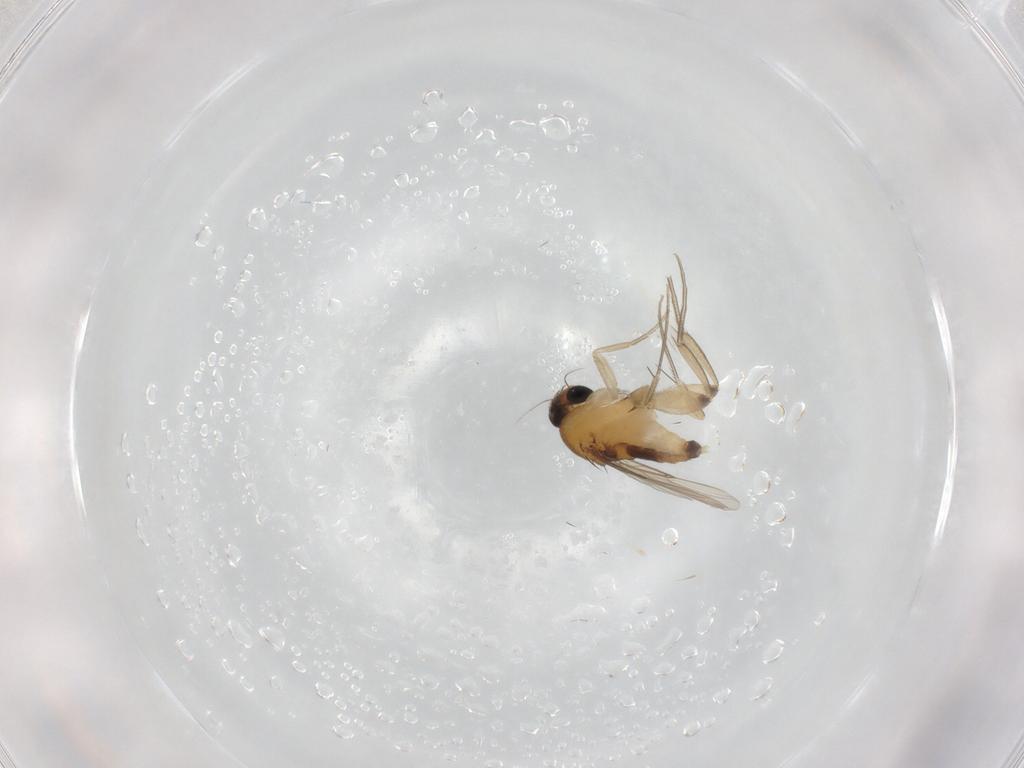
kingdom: Animalia
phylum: Arthropoda
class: Insecta
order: Diptera
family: Phoridae
